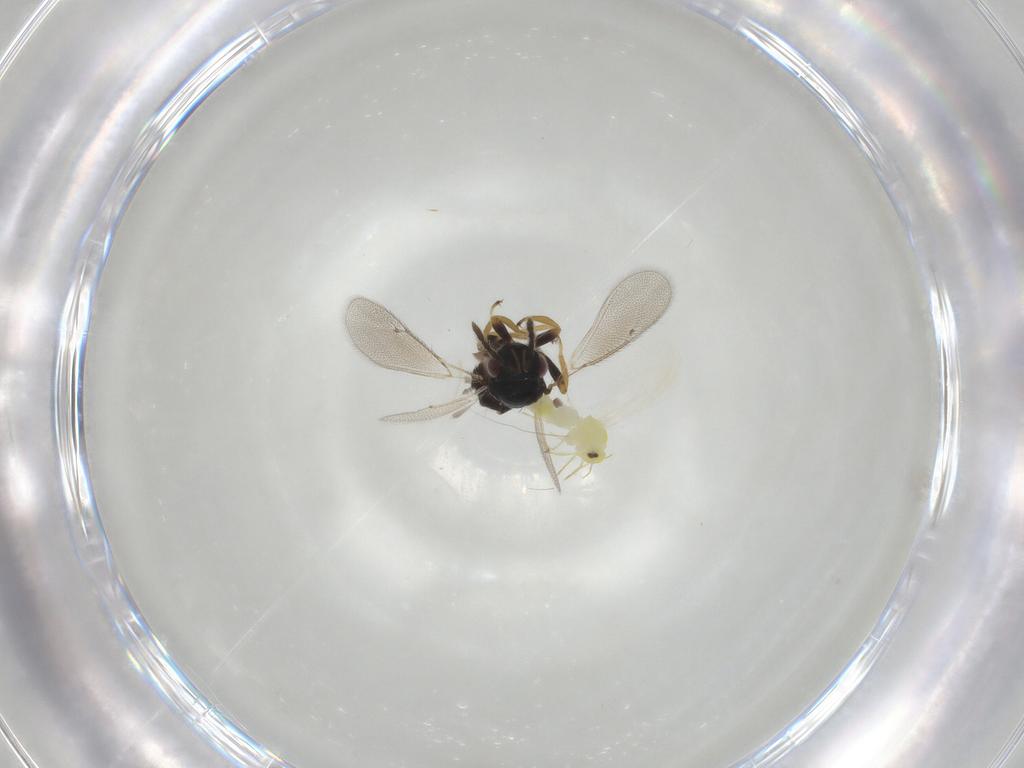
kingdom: Animalia
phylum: Arthropoda
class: Insecta
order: Hymenoptera
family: Eulophidae
